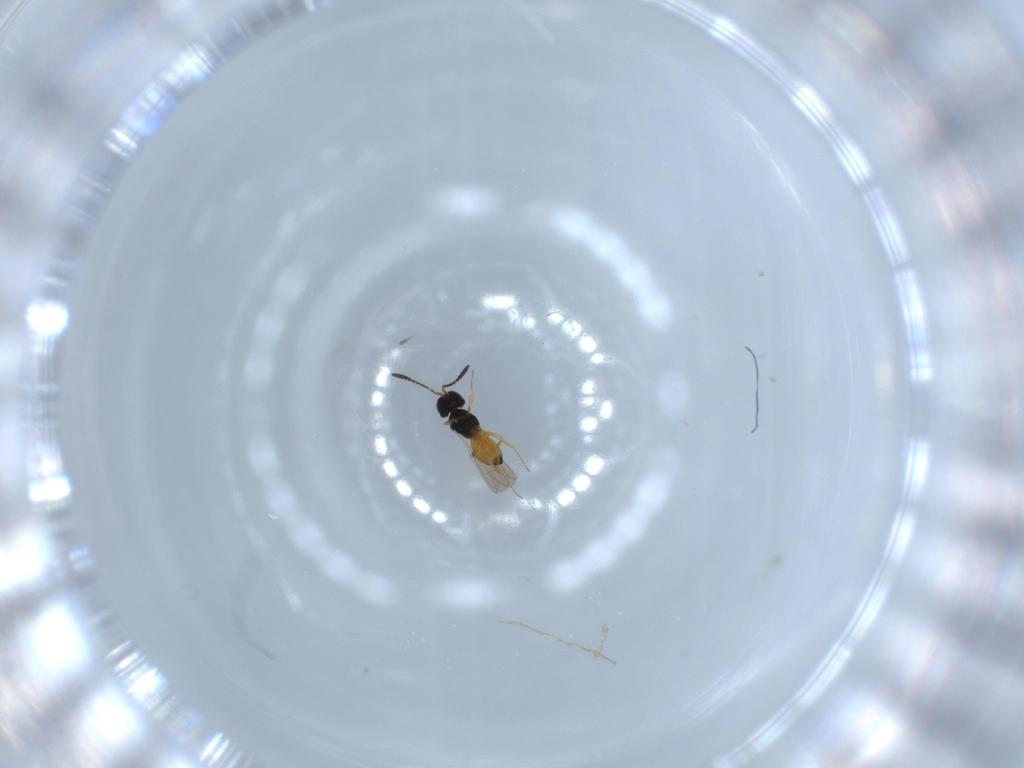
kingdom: Animalia
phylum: Arthropoda
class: Insecta
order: Hymenoptera
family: Scelionidae
